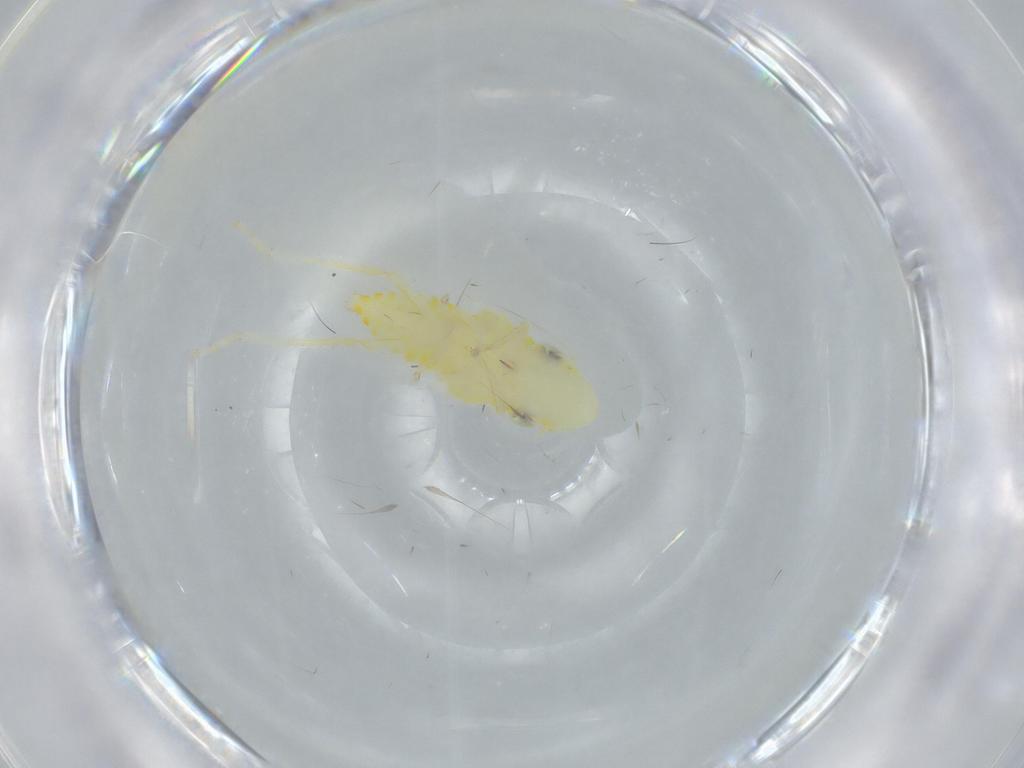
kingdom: Animalia
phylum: Arthropoda
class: Insecta
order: Hemiptera
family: Cicadellidae
